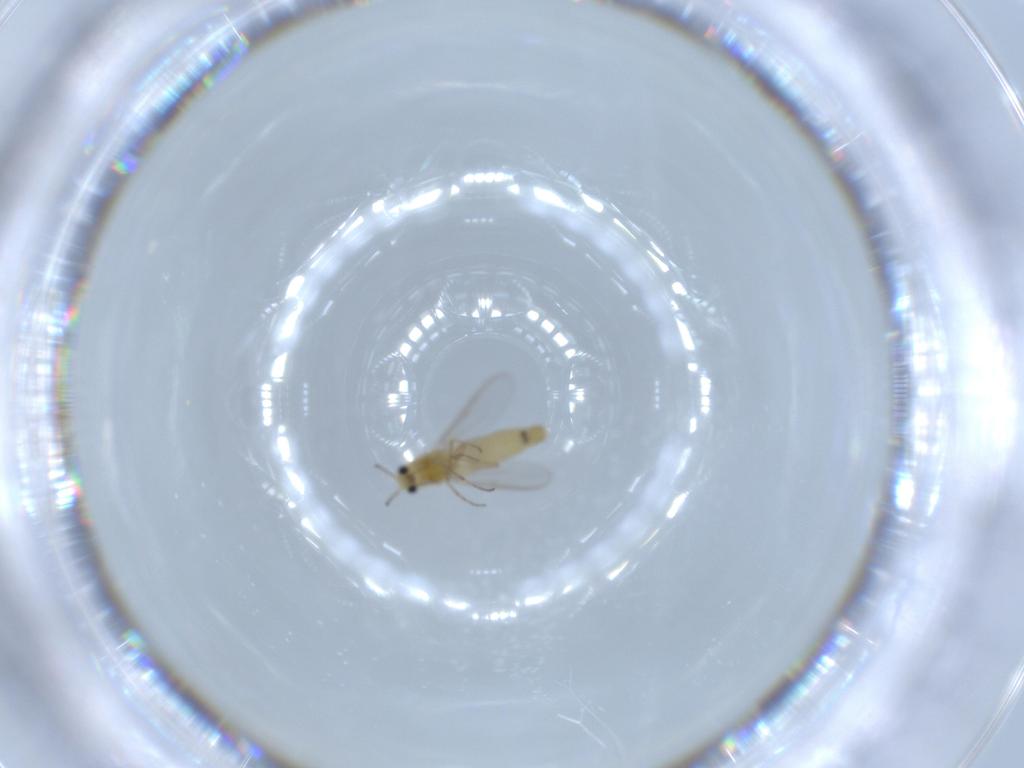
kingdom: Animalia
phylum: Arthropoda
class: Insecta
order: Diptera
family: Chironomidae
